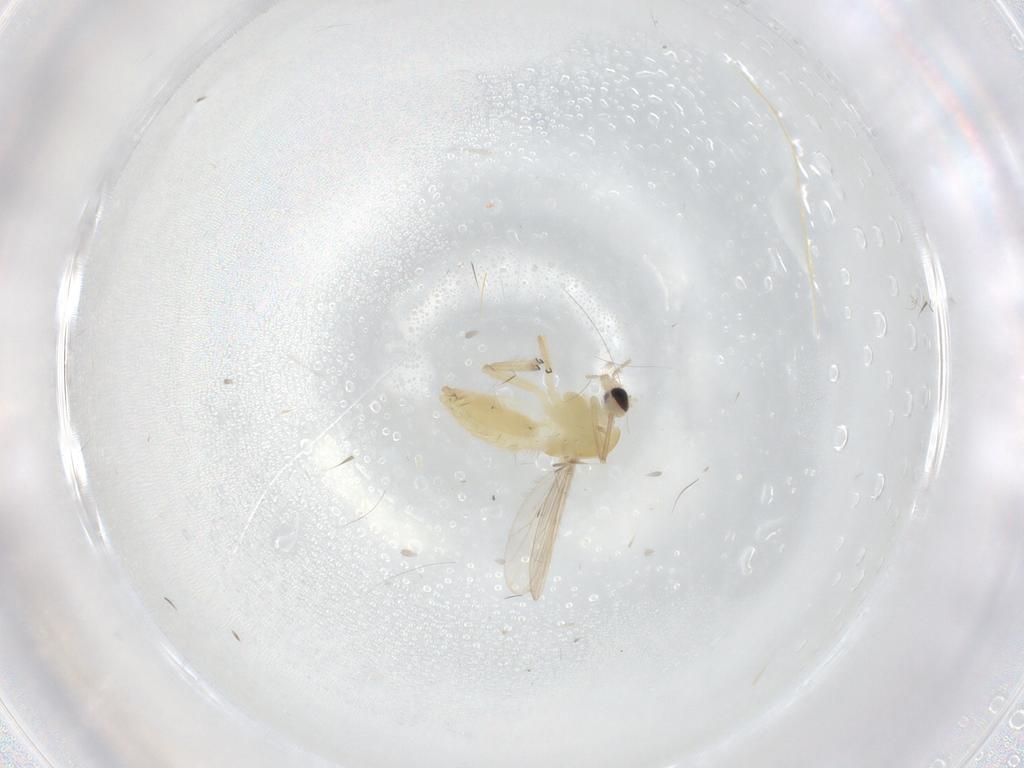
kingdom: Animalia
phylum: Arthropoda
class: Insecta
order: Diptera
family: Chironomidae
